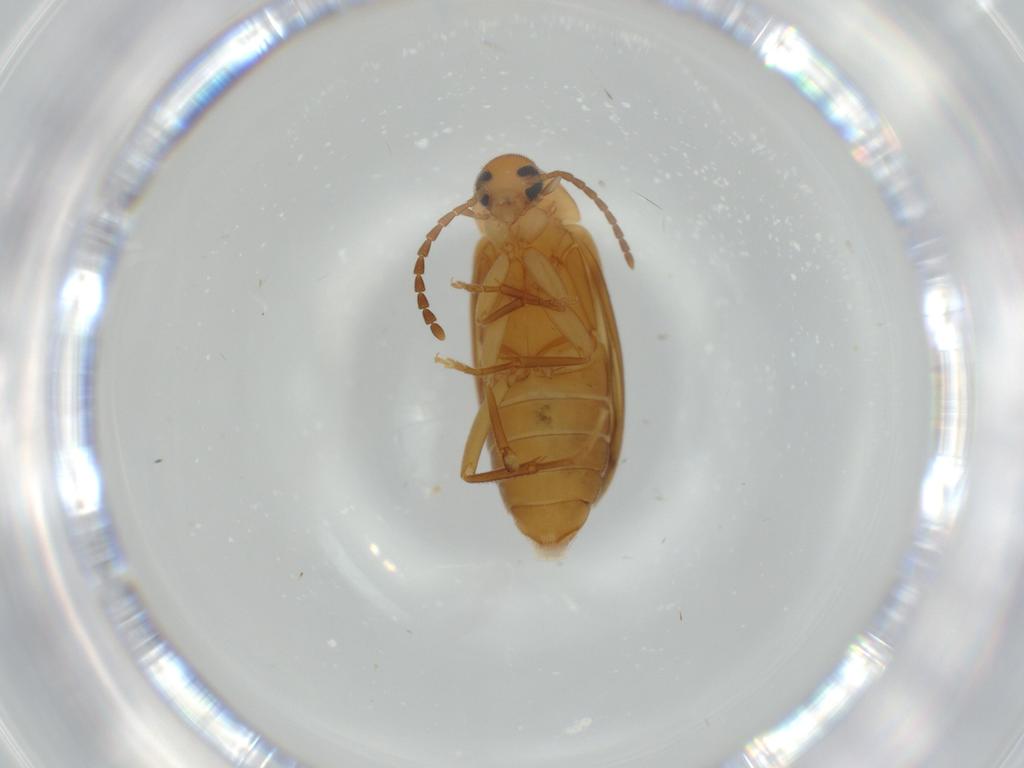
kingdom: Animalia
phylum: Arthropoda
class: Insecta
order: Coleoptera
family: Scraptiidae
